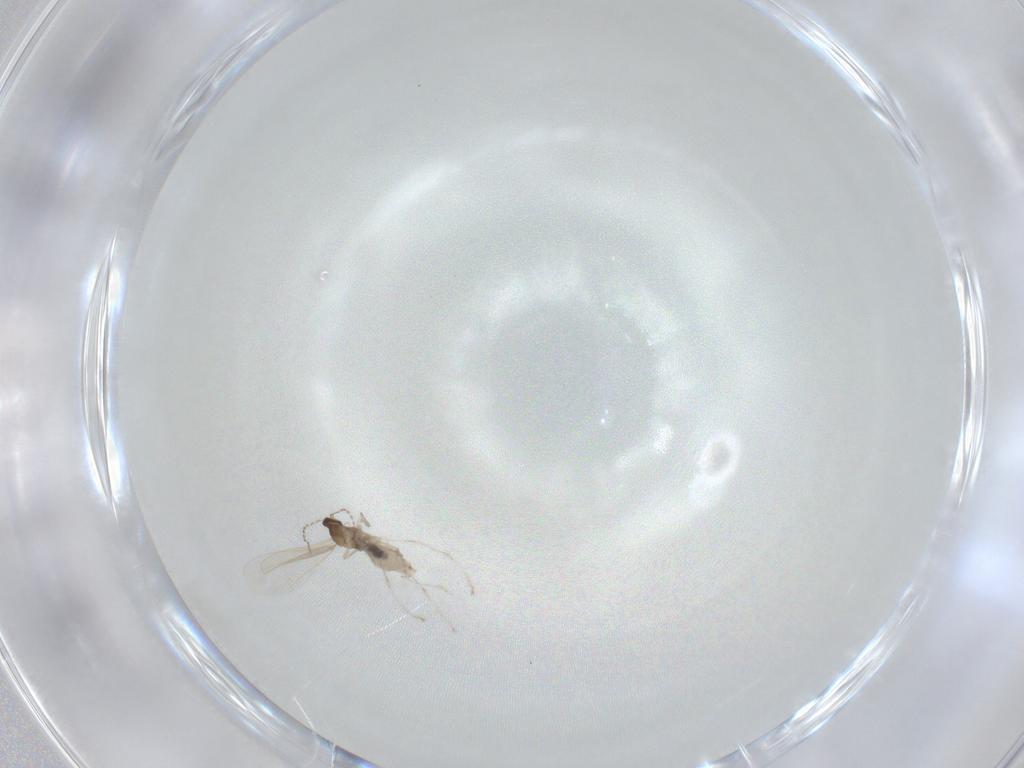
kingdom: Animalia
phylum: Arthropoda
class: Insecta
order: Diptera
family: Cecidomyiidae
